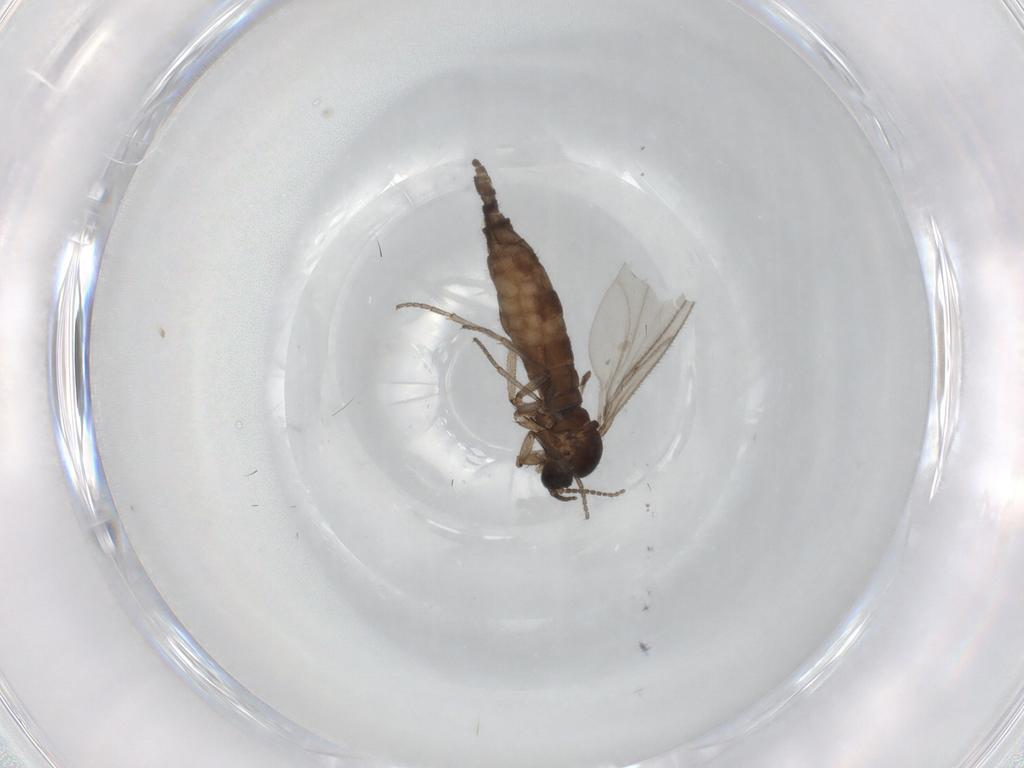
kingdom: Animalia
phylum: Arthropoda
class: Insecta
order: Diptera
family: Sciaridae
